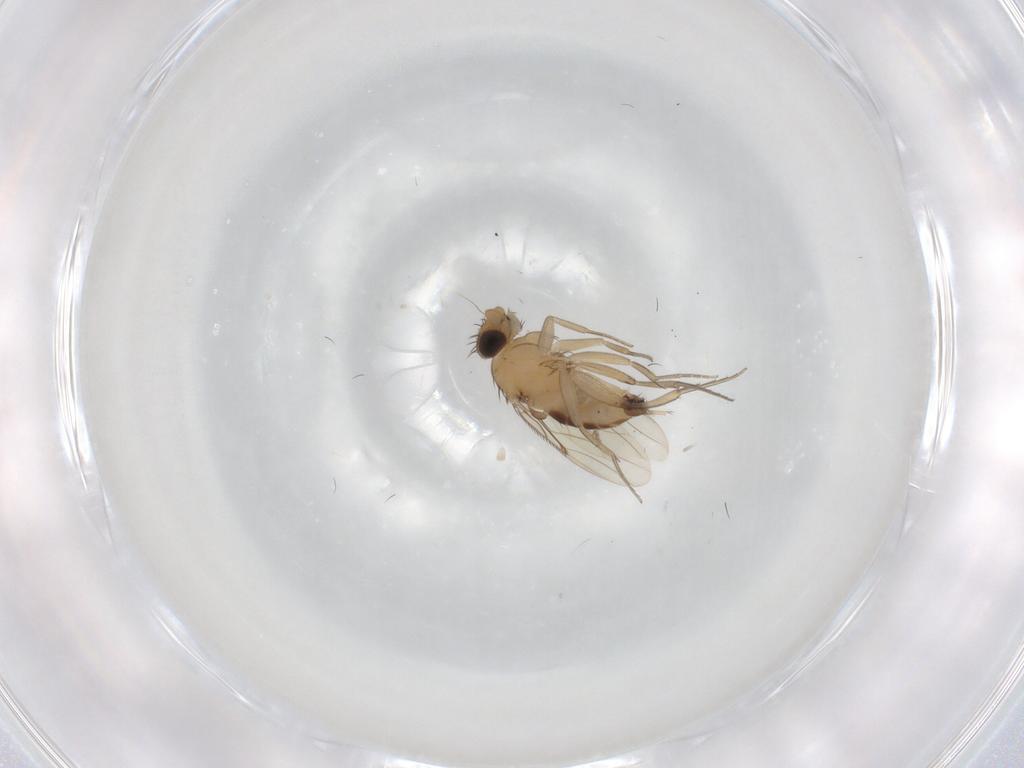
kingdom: Animalia
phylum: Arthropoda
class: Insecta
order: Diptera
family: Phoridae
